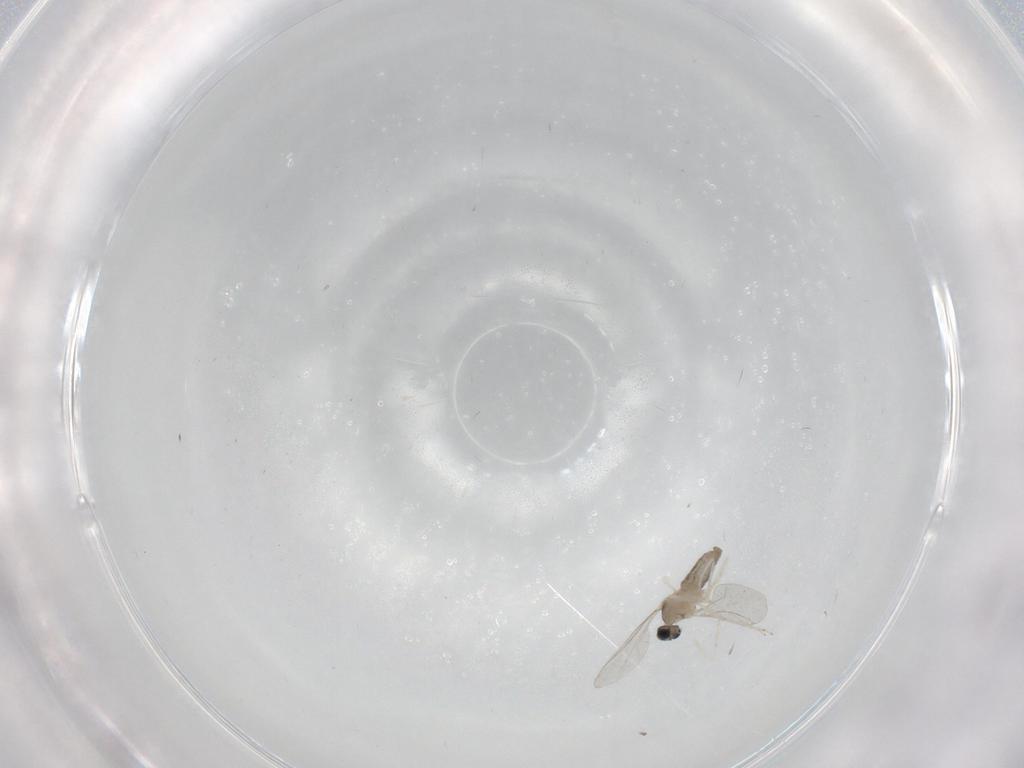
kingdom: Animalia
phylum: Arthropoda
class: Insecta
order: Diptera
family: Cecidomyiidae
